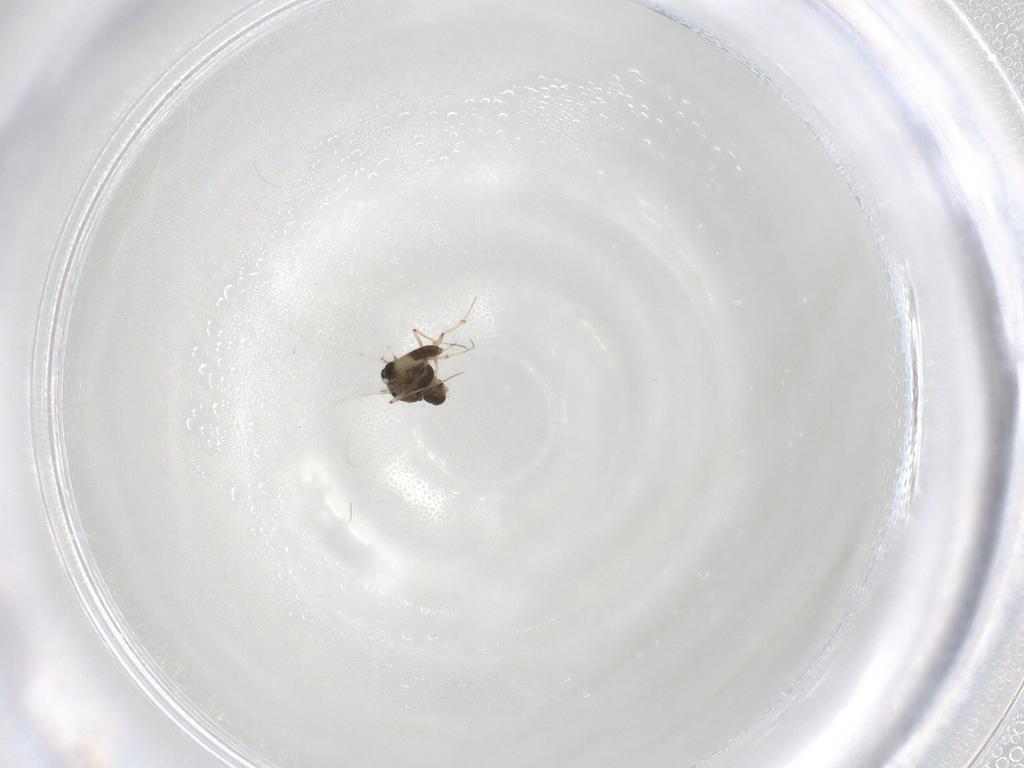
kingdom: Animalia
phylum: Arthropoda
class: Insecta
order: Diptera
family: Chironomidae
